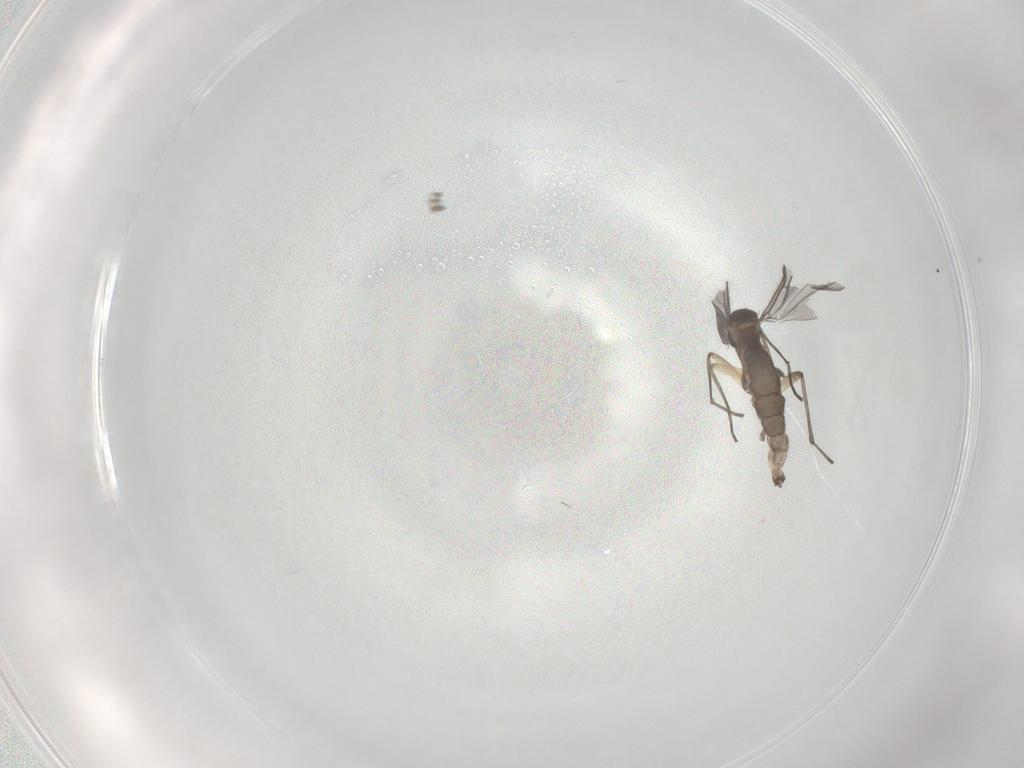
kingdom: Animalia
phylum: Arthropoda
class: Insecta
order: Diptera
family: Sciaridae
